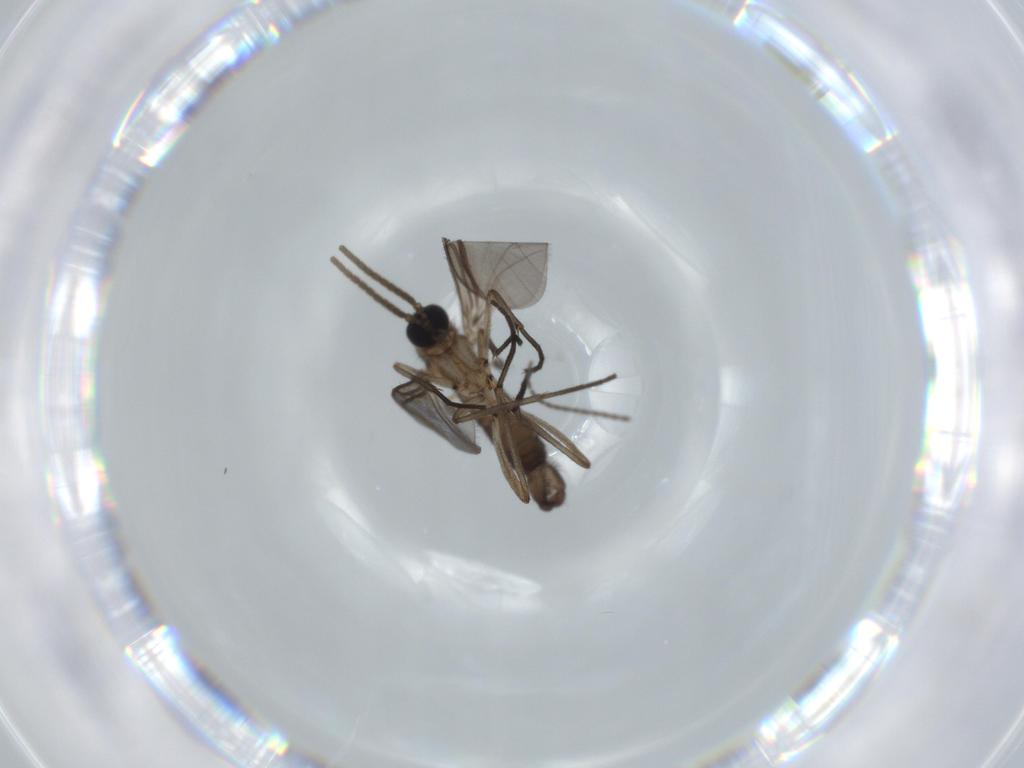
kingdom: Animalia
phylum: Arthropoda
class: Insecta
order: Diptera
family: Sciaridae
